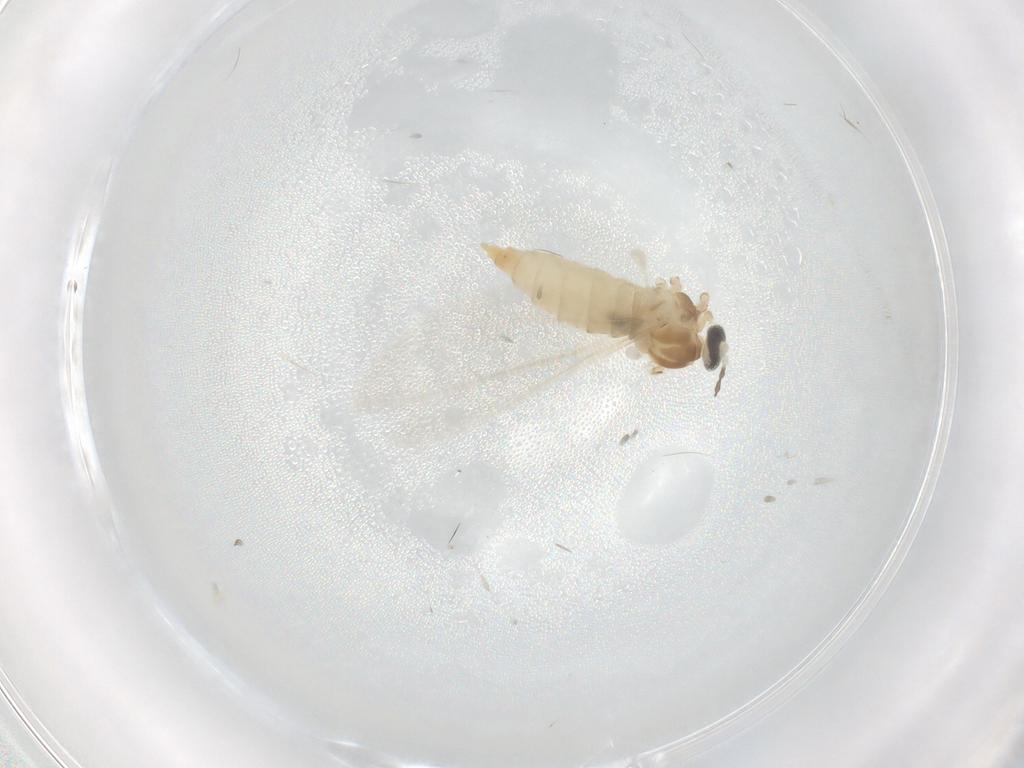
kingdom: Animalia
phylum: Arthropoda
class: Insecta
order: Diptera
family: Cecidomyiidae
